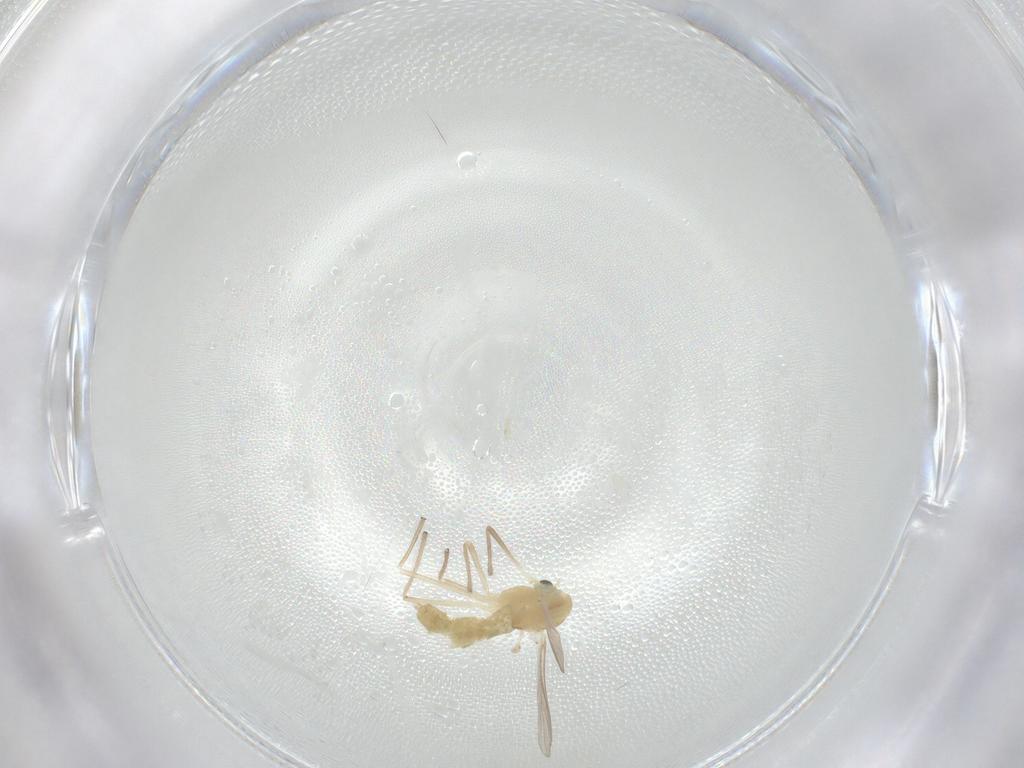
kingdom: Animalia
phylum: Arthropoda
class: Insecta
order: Diptera
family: Chironomidae
